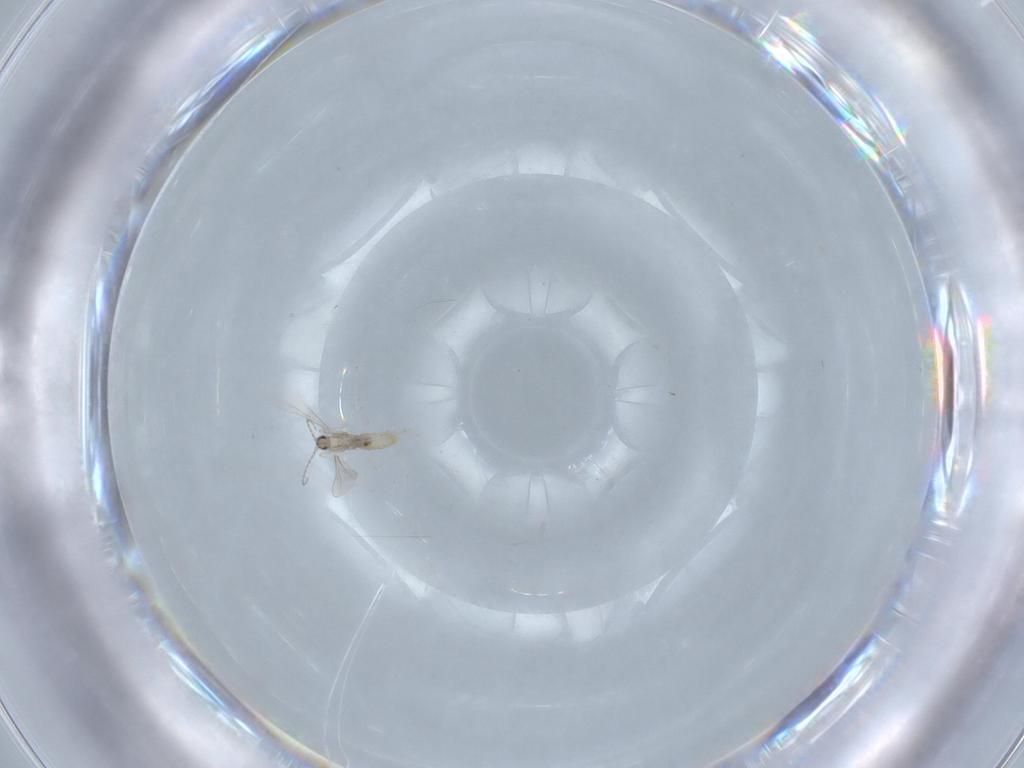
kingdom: Animalia
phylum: Arthropoda
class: Insecta
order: Diptera
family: Cecidomyiidae
